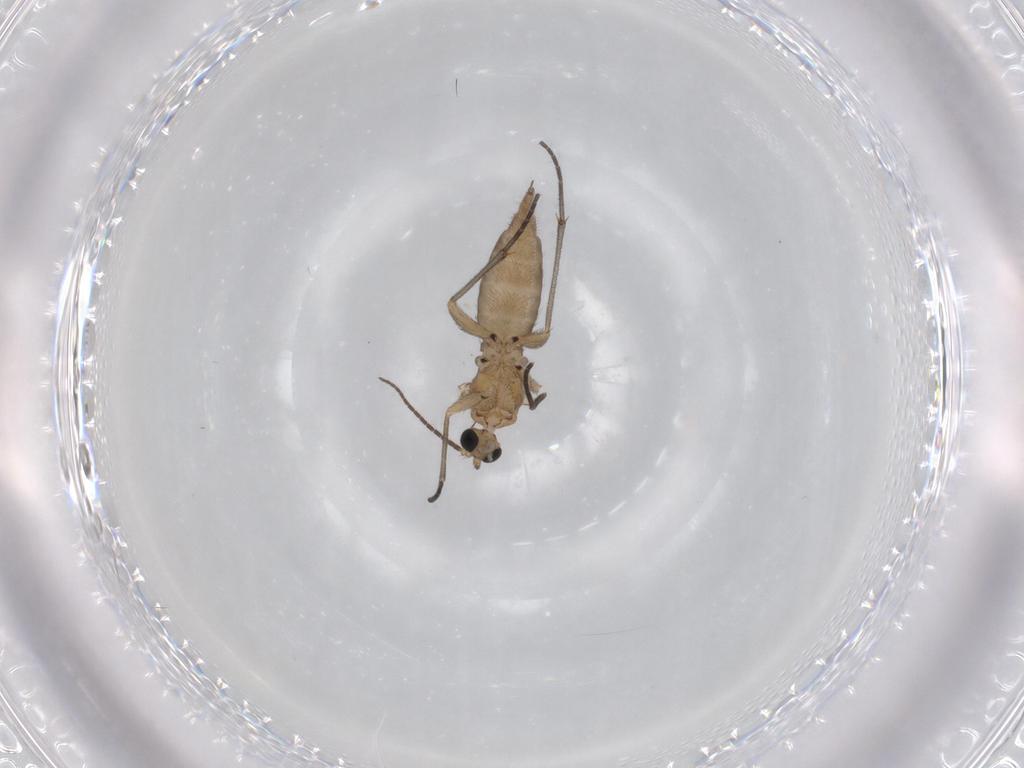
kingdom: Animalia
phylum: Arthropoda
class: Insecta
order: Diptera
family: Sciaridae
